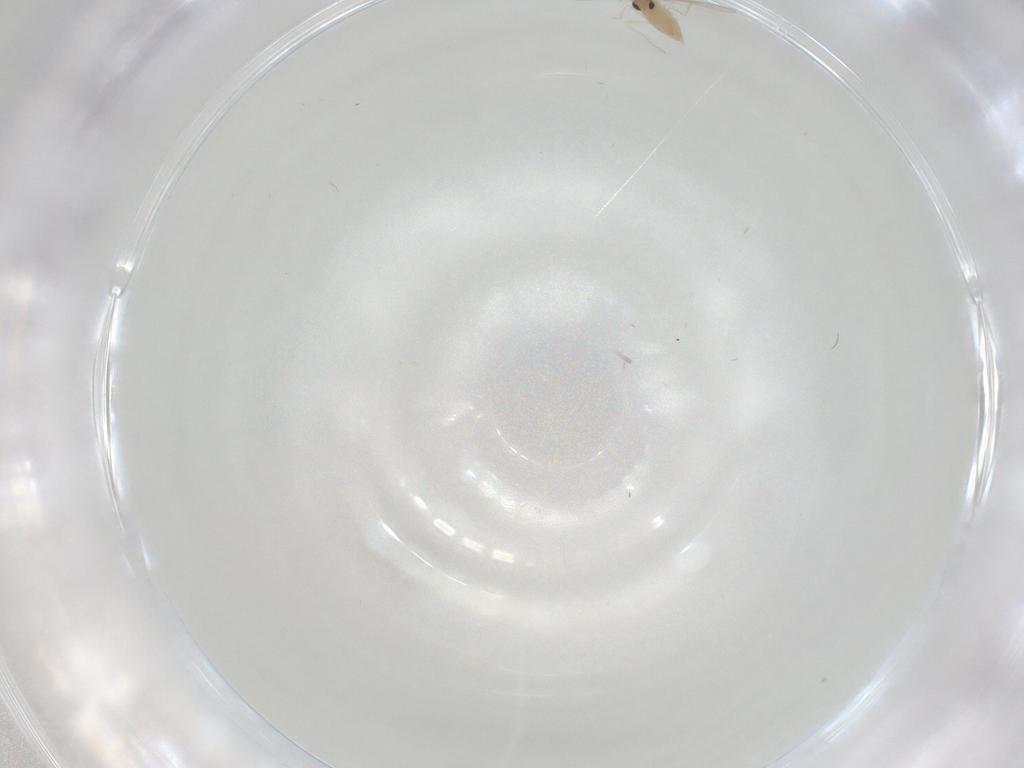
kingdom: Animalia
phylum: Arthropoda
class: Insecta
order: Diptera
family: Cecidomyiidae
